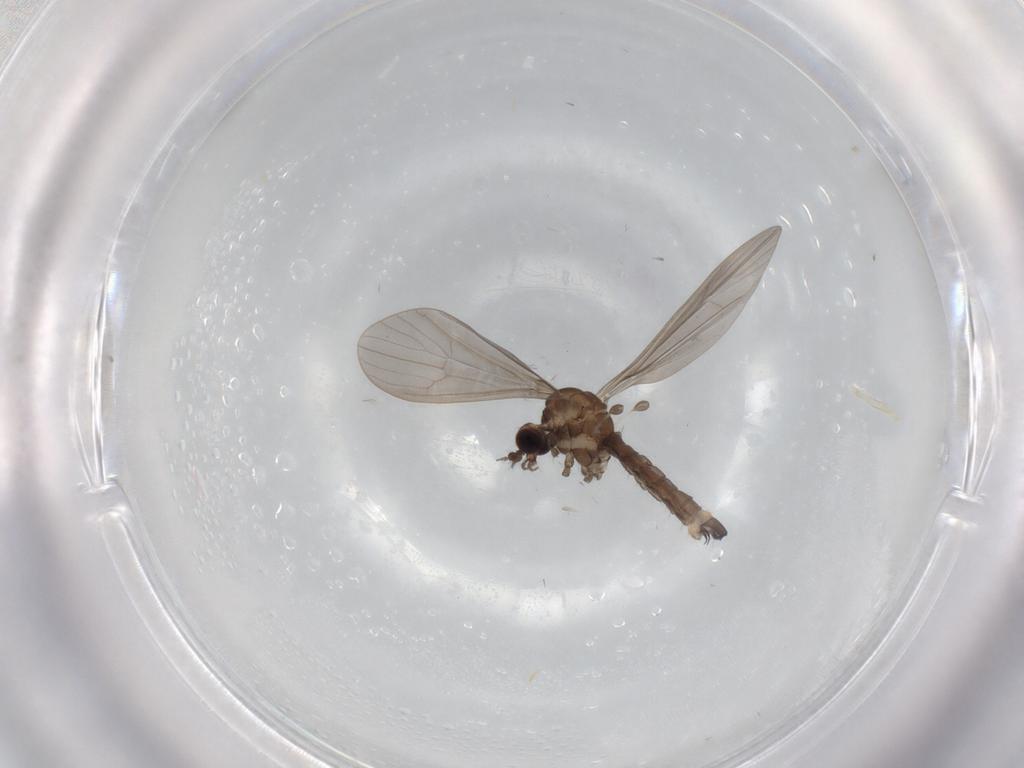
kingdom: Animalia
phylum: Arthropoda
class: Insecta
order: Diptera
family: Limoniidae
